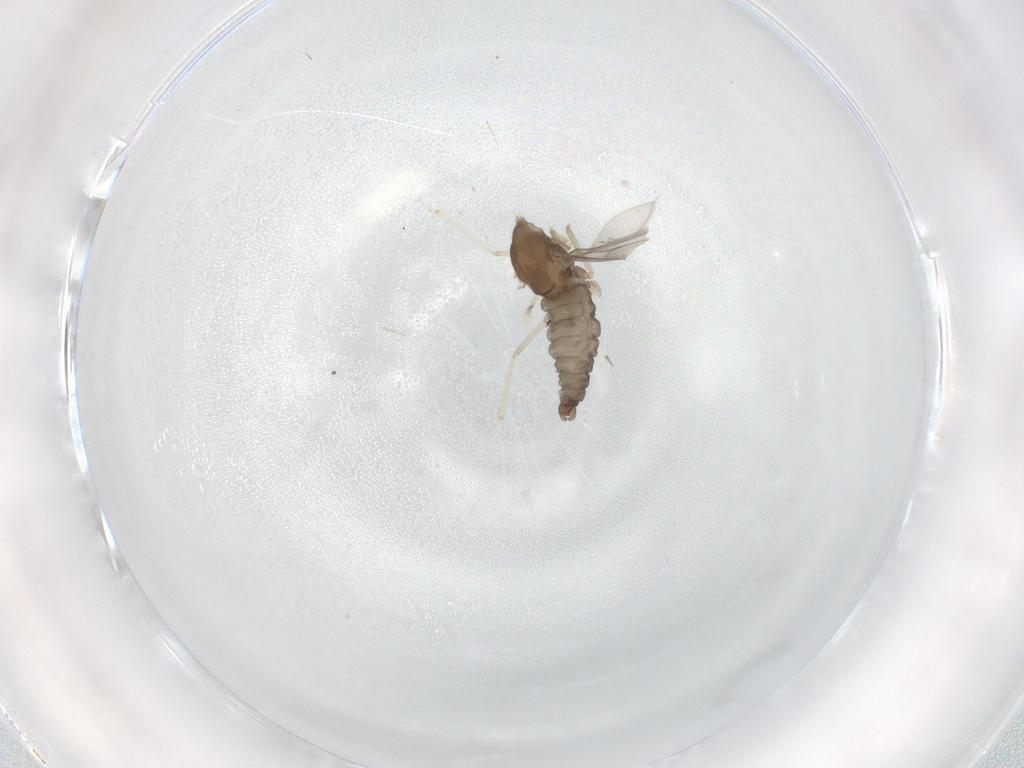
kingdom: Animalia
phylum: Arthropoda
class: Insecta
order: Diptera
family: Cecidomyiidae
